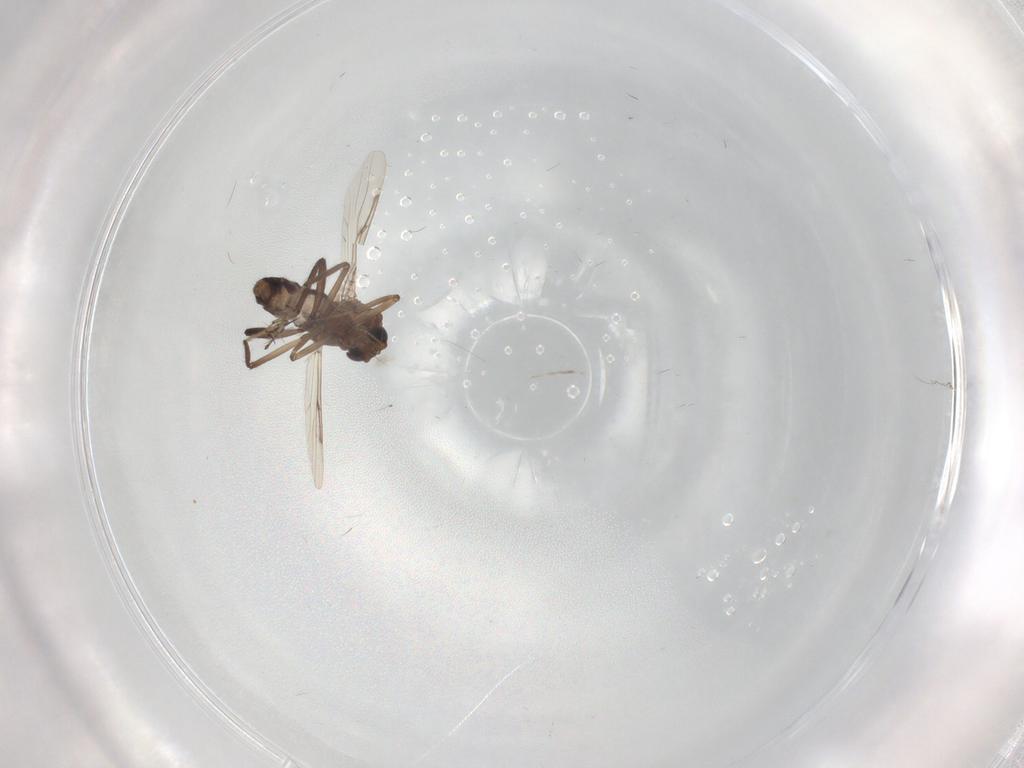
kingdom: Animalia
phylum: Arthropoda
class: Insecta
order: Diptera
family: Ceratopogonidae
